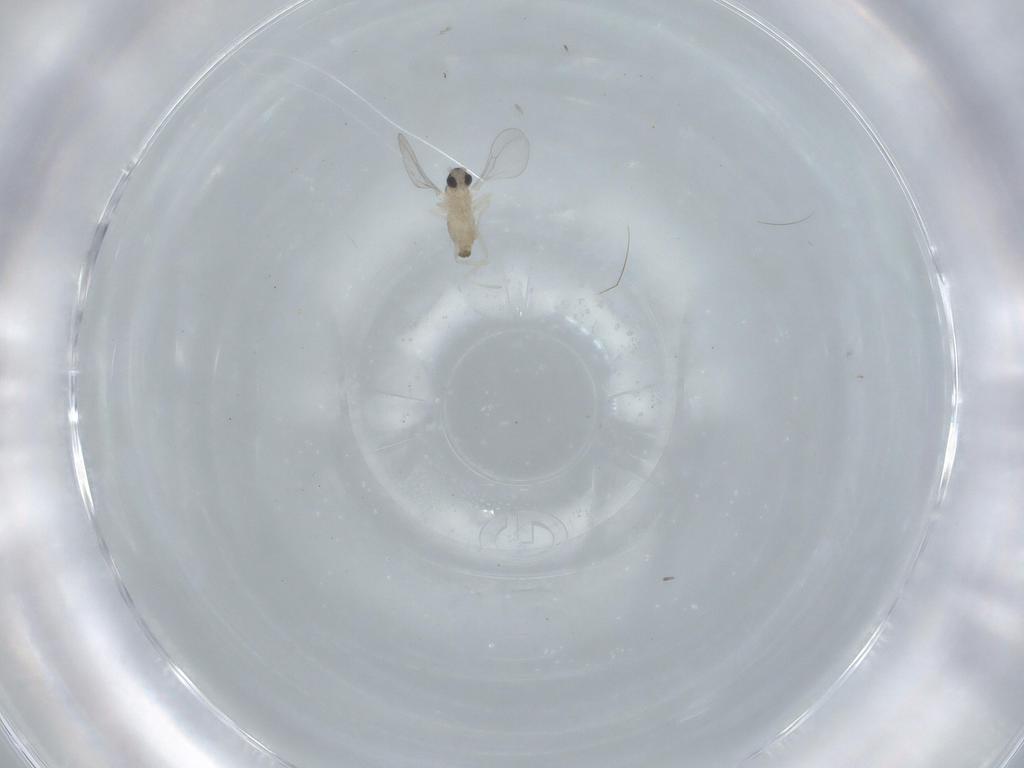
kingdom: Animalia
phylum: Arthropoda
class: Insecta
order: Diptera
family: Cecidomyiidae
